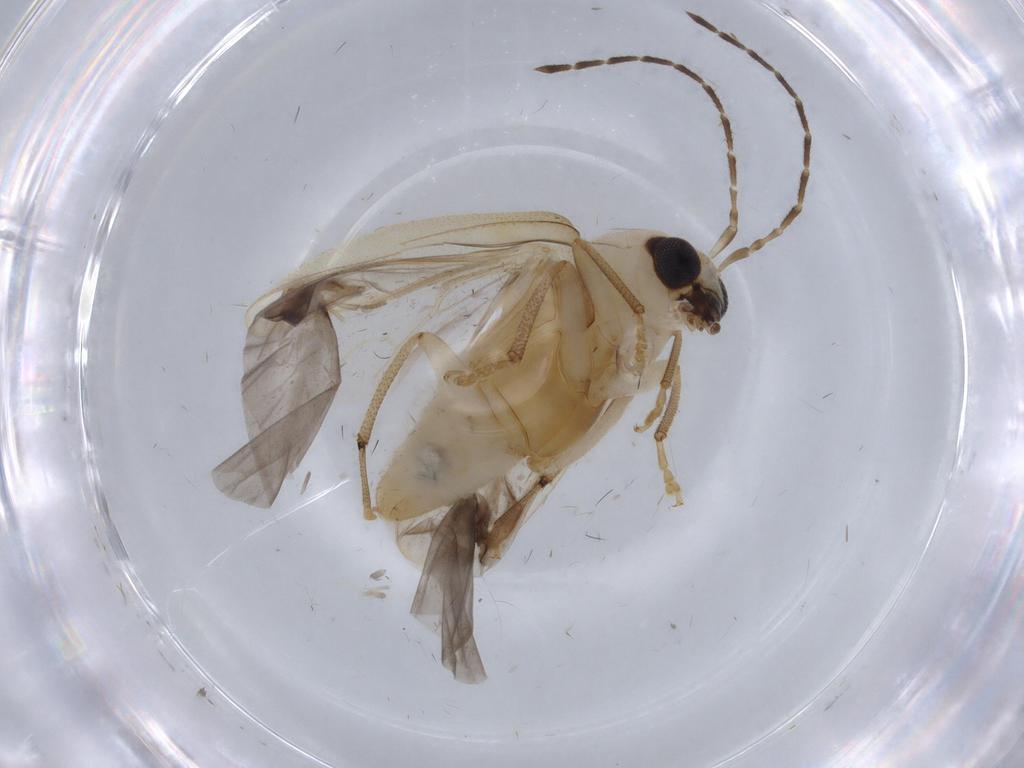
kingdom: Animalia
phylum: Arthropoda
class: Insecta
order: Coleoptera
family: Chrysomelidae
